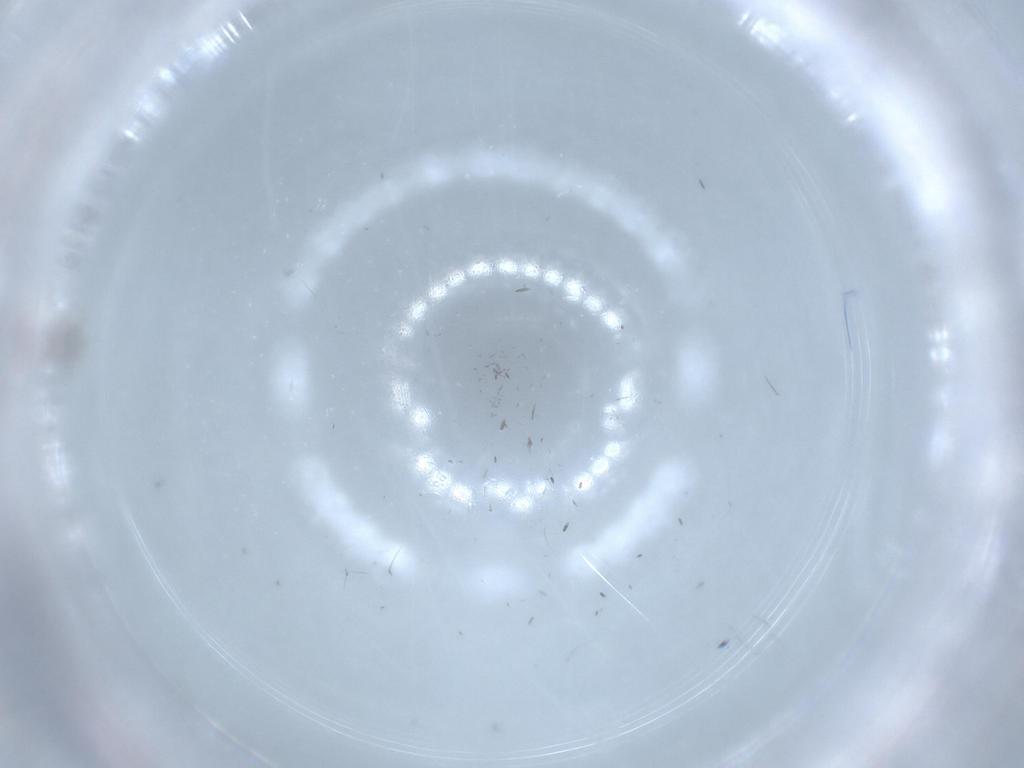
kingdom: Animalia
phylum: Arthropoda
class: Insecta
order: Diptera
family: Cecidomyiidae
